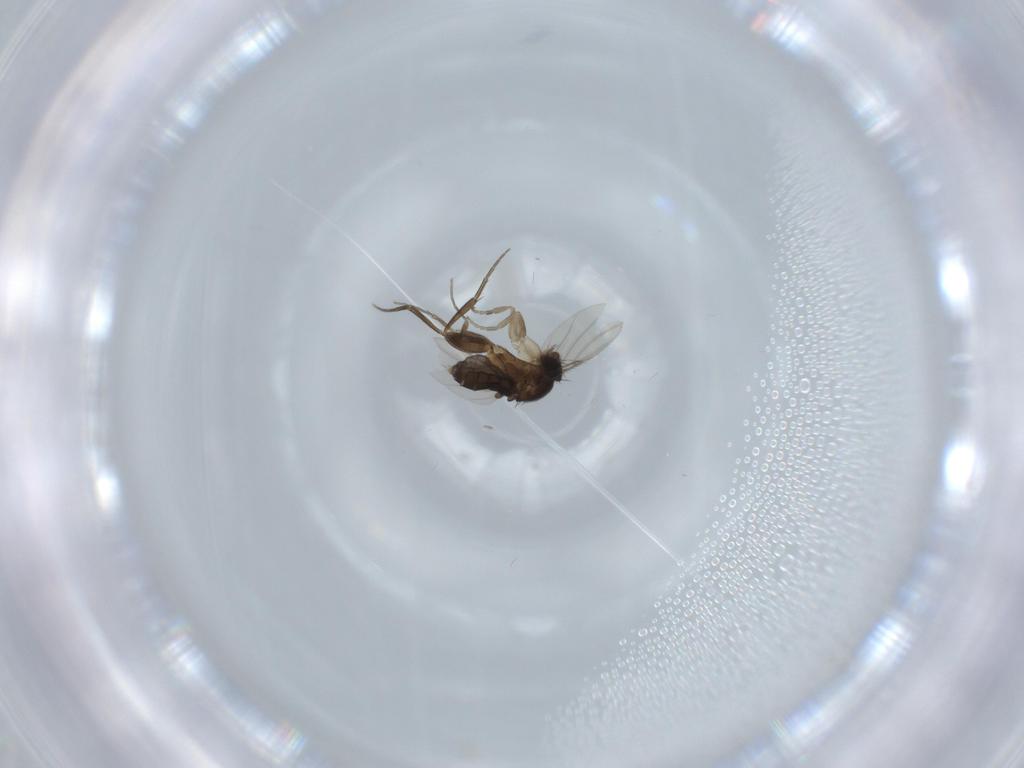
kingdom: Animalia
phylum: Arthropoda
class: Insecta
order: Diptera
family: Phoridae
